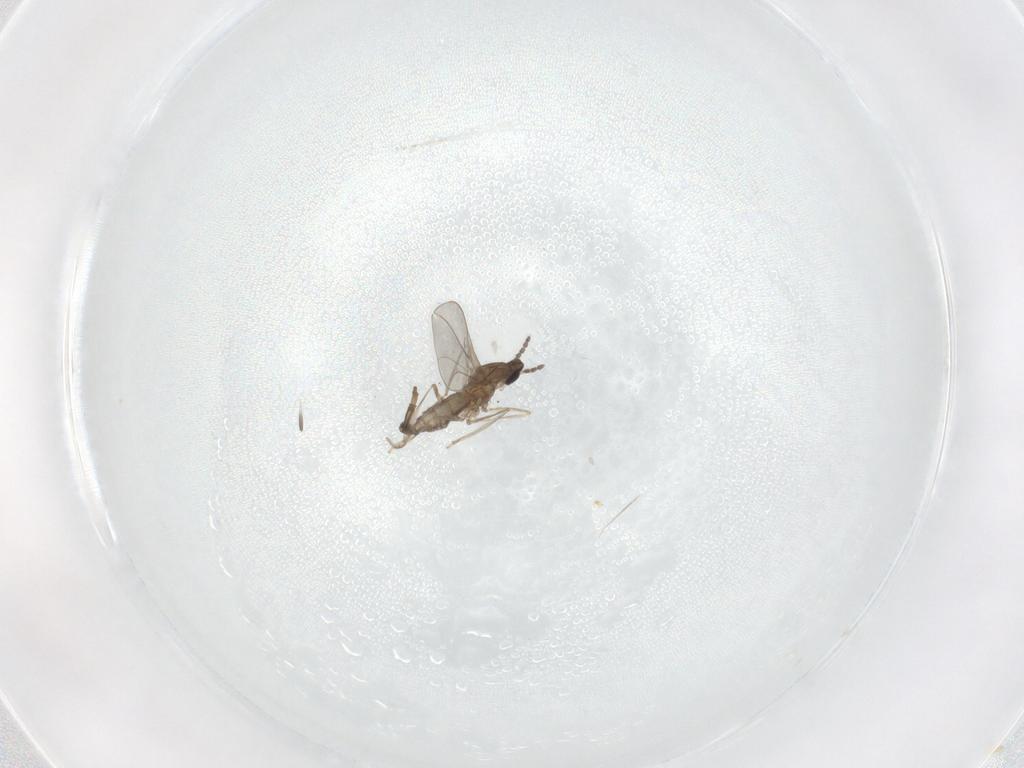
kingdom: Animalia
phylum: Arthropoda
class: Insecta
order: Diptera
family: Cecidomyiidae
